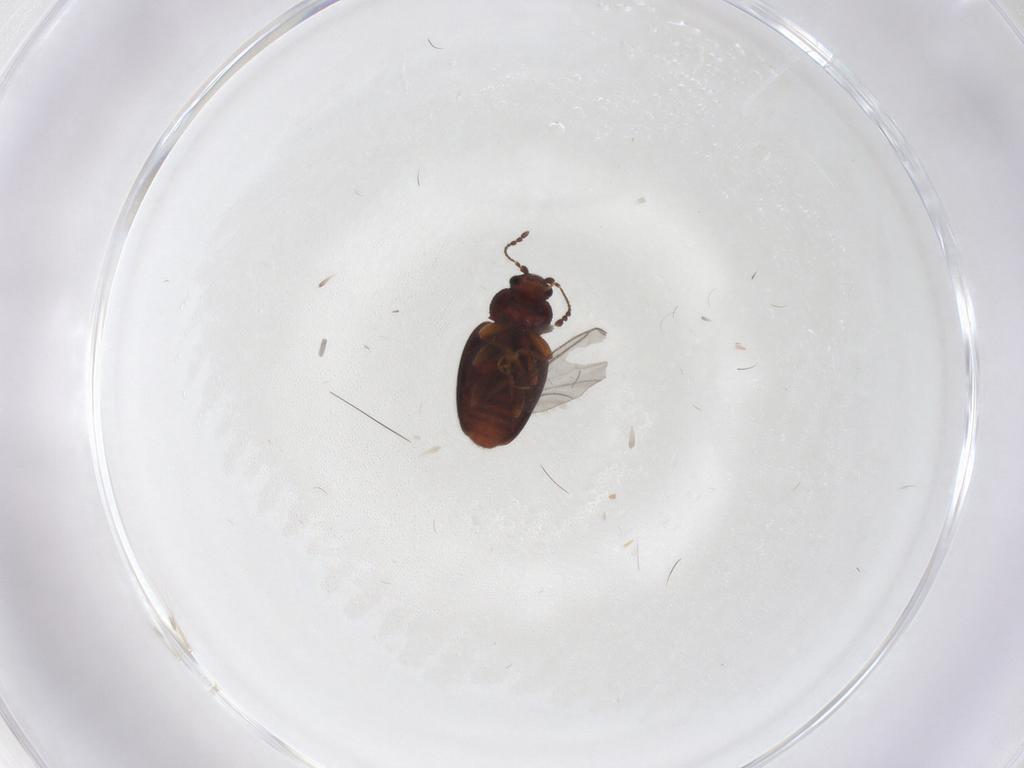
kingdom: Animalia
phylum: Arthropoda
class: Insecta
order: Coleoptera
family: Latridiidae
